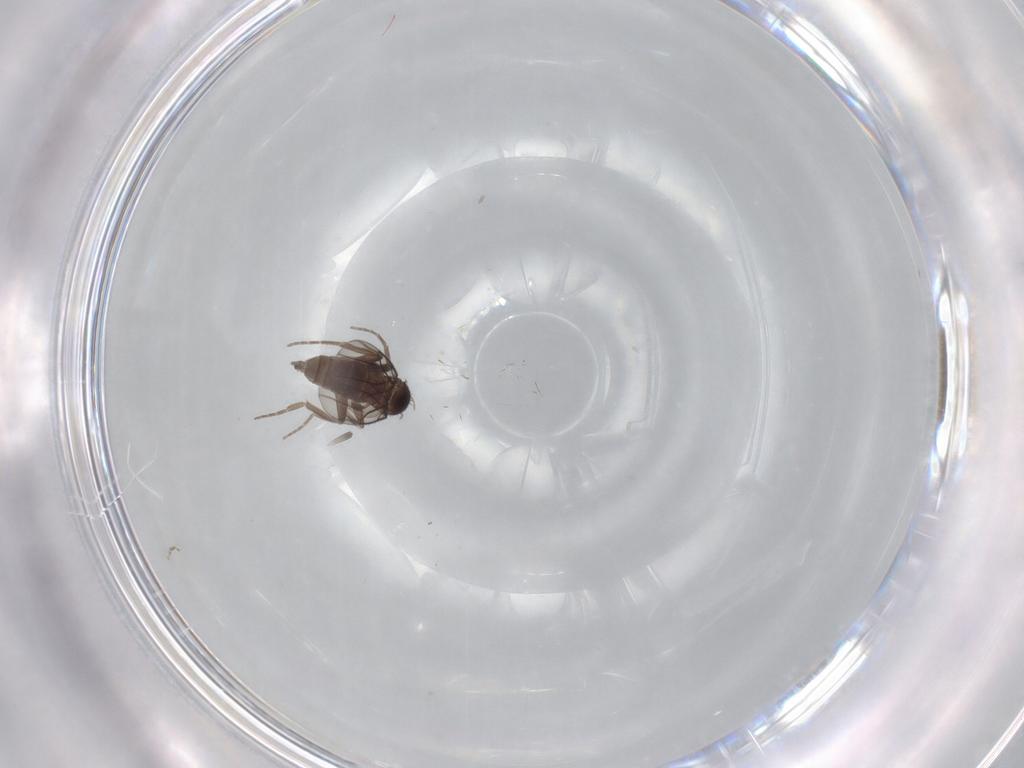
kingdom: Animalia
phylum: Arthropoda
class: Insecta
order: Diptera
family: Phoridae
